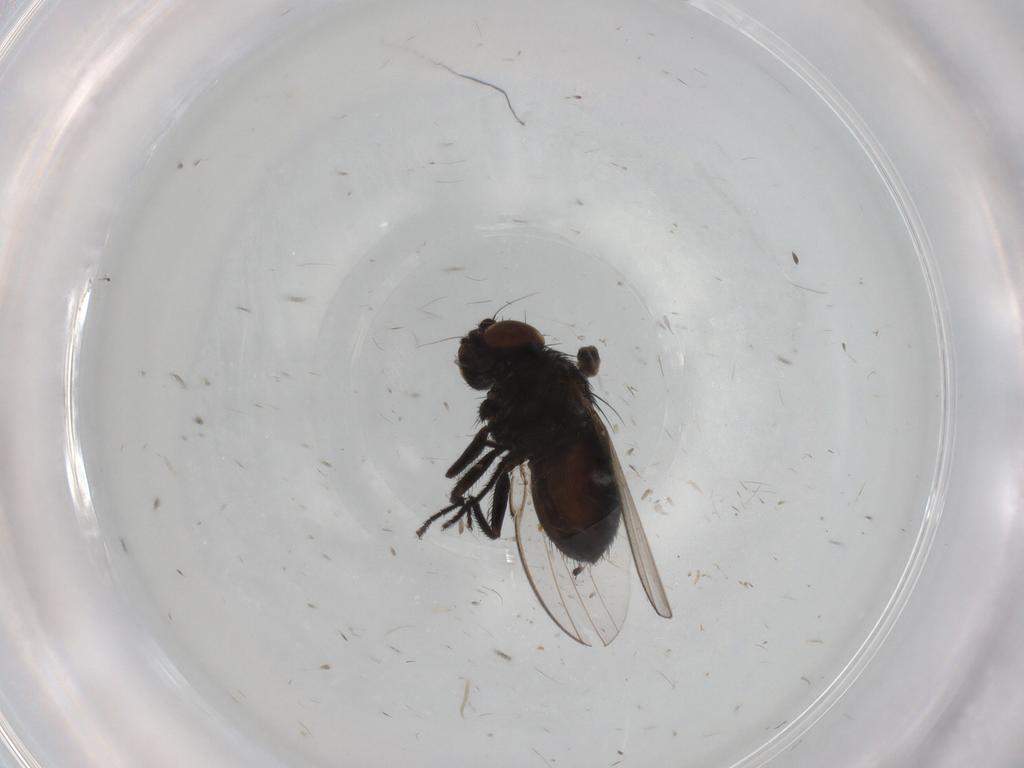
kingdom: Animalia
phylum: Arthropoda
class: Insecta
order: Diptera
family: Milichiidae
